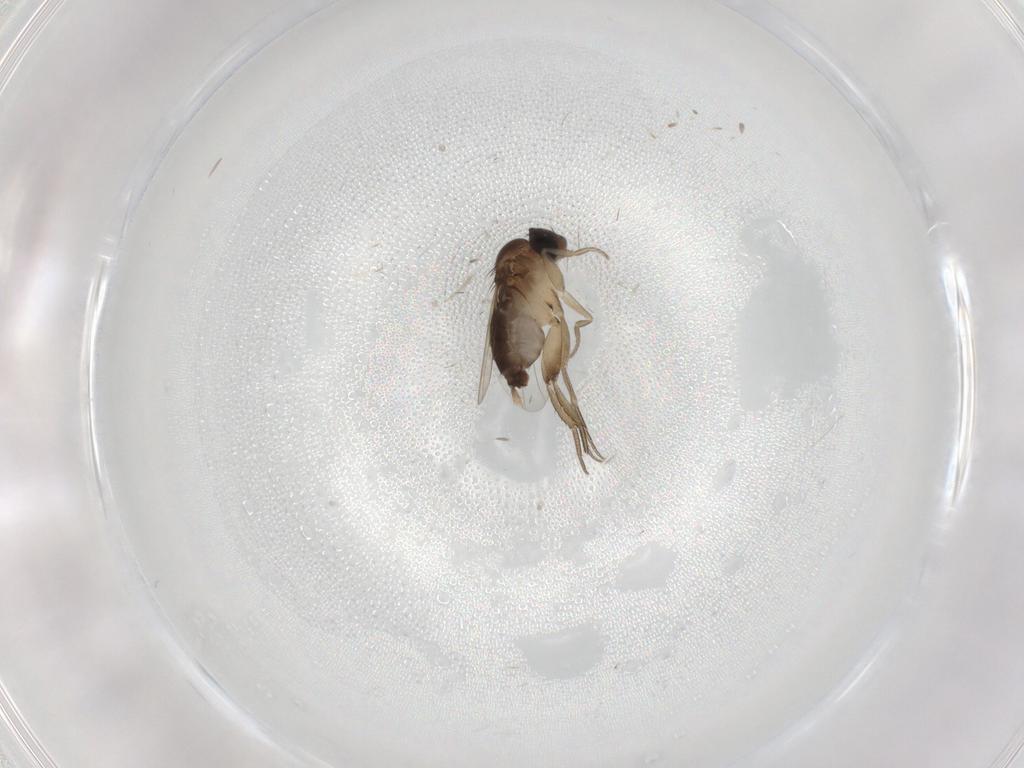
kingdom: Animalia
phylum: Arthropoda
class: Insecta
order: Diptera
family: Phoridae
